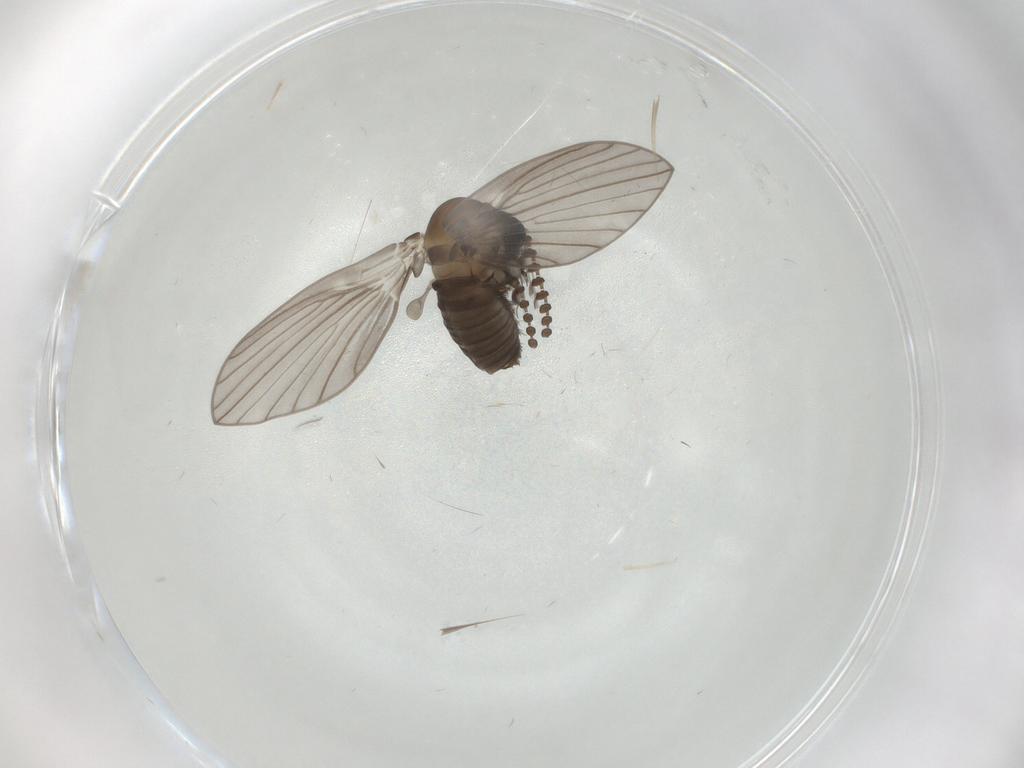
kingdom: Animalia
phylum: Arthropoda
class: Insecta
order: Diptera
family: Psychodidae
